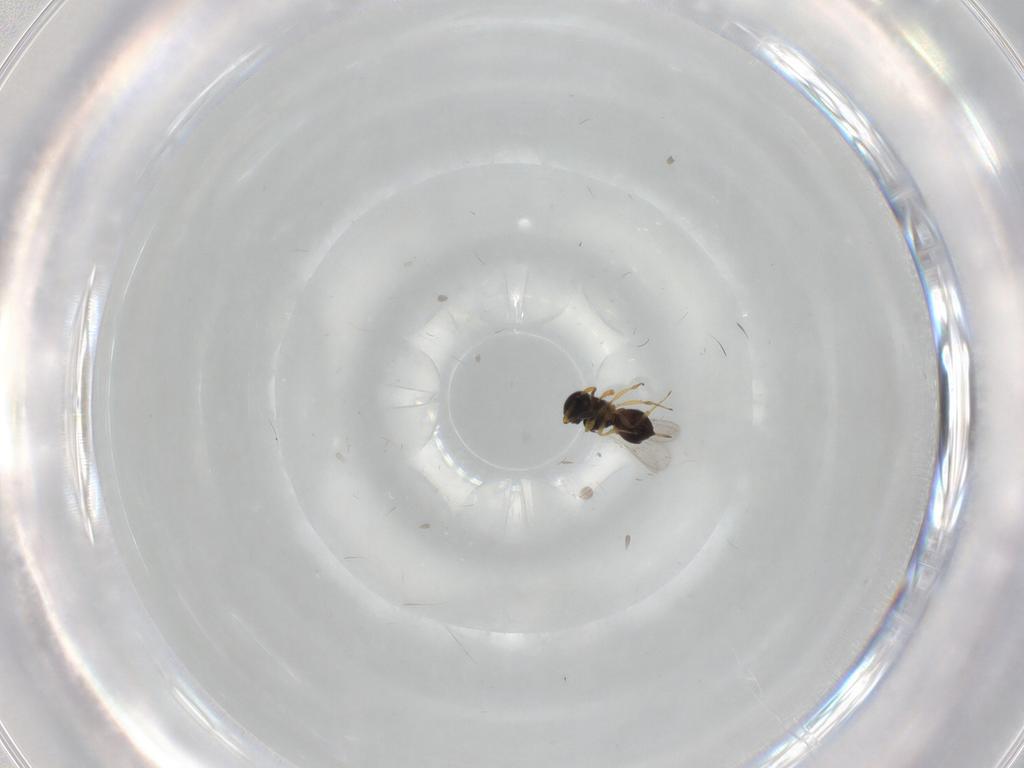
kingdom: Animalia
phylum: Arthropoda
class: Insecta
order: Hymenoptera
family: Scelionidae
